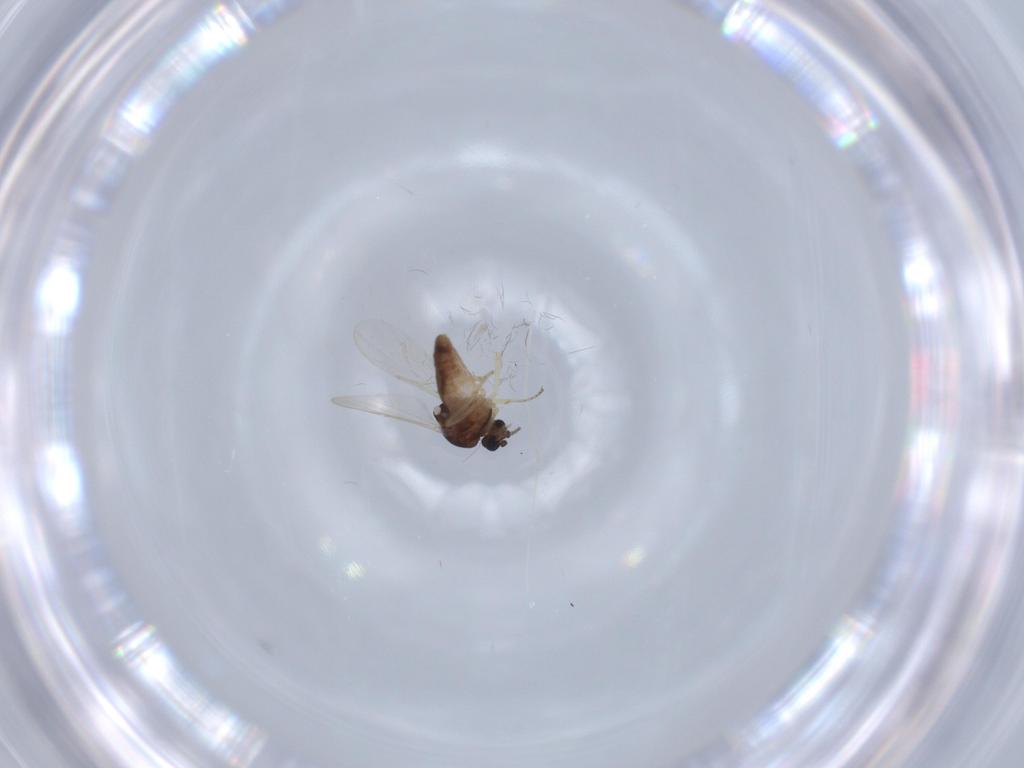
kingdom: Animalia
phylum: Arthropoda
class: Insecta
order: Diptera
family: Ceratopogonidae
